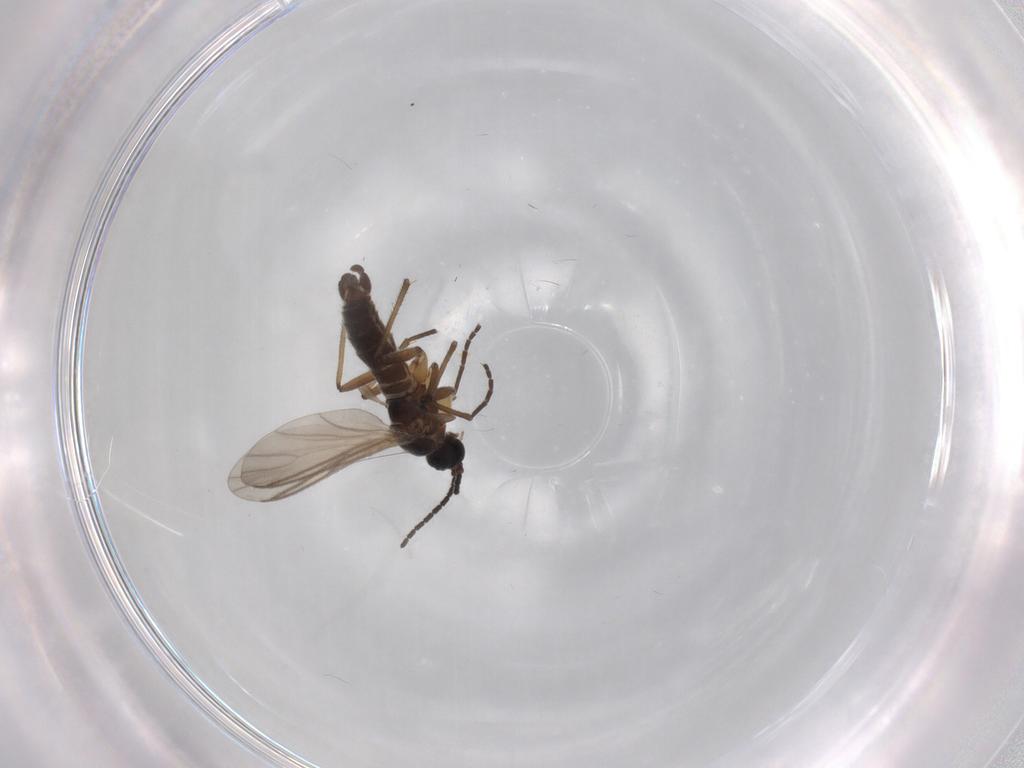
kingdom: Animalia
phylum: Arthropoda
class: Insecta
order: Diptera
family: Sciaridae
